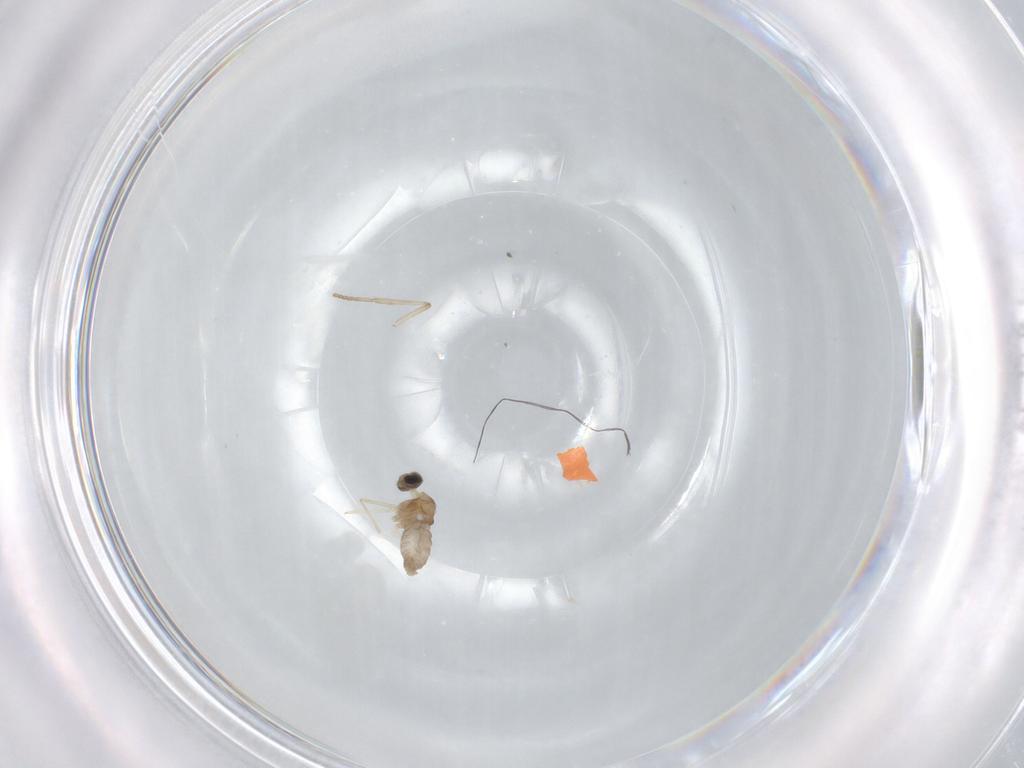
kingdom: Animalia
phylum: Arthropoda
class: Insecta
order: Diptera
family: Cecidomyiidae
